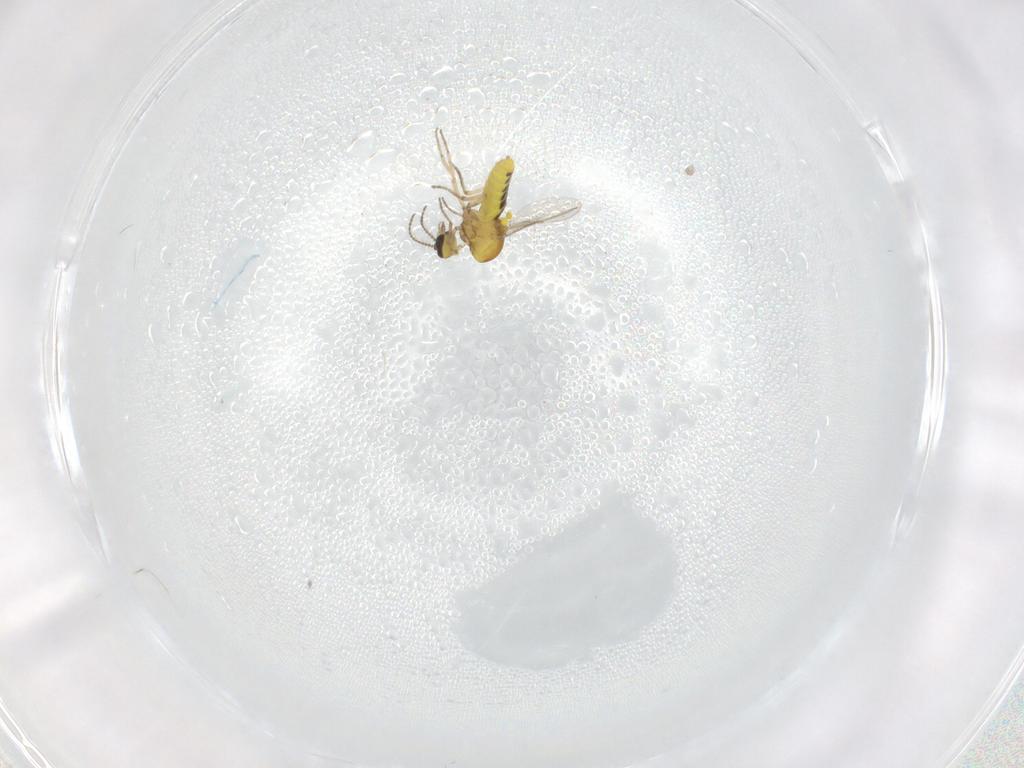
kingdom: Animalia
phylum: Arthropoda
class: Insecta
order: Diptera
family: Ceratopogonidae
